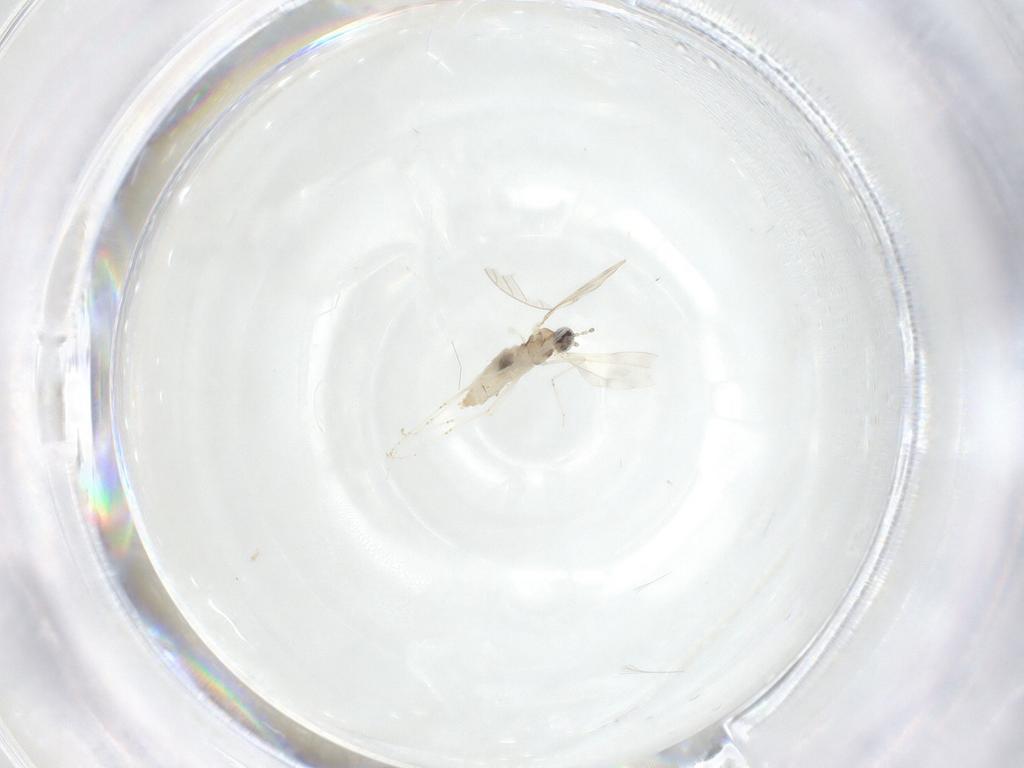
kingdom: Animalia
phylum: Arthropoda
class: Insecta
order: Diptera
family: Cecidomyiidae
